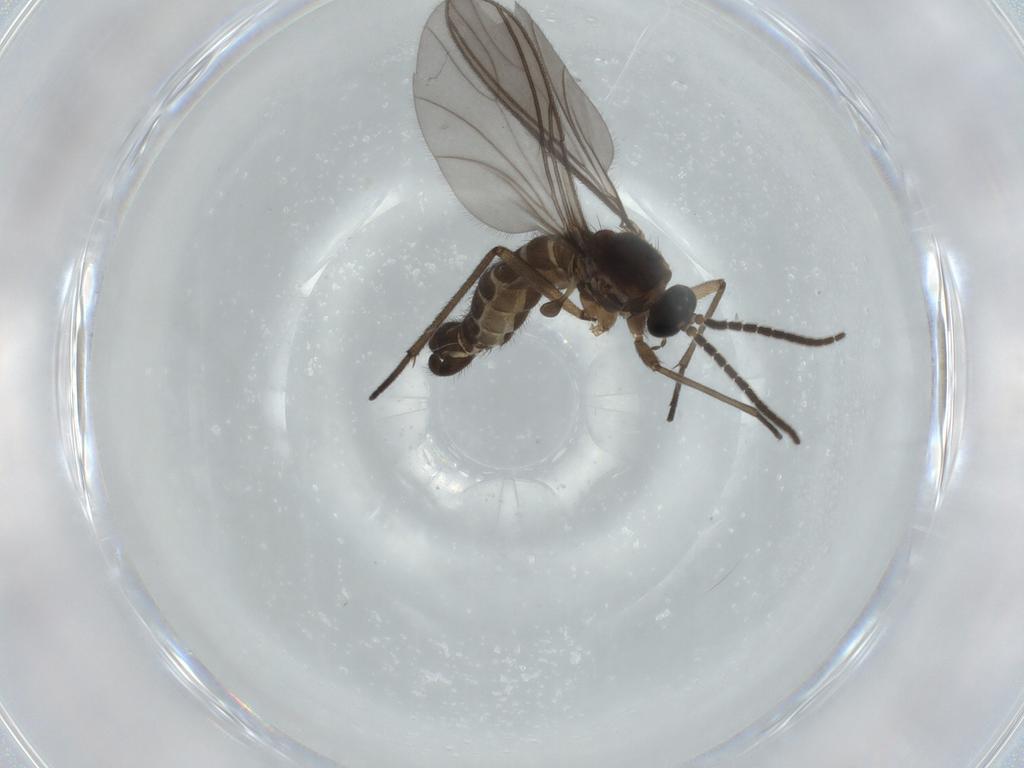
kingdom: Animalia
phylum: Arthropoda
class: Insecta
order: Diptera
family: Sciaridae
